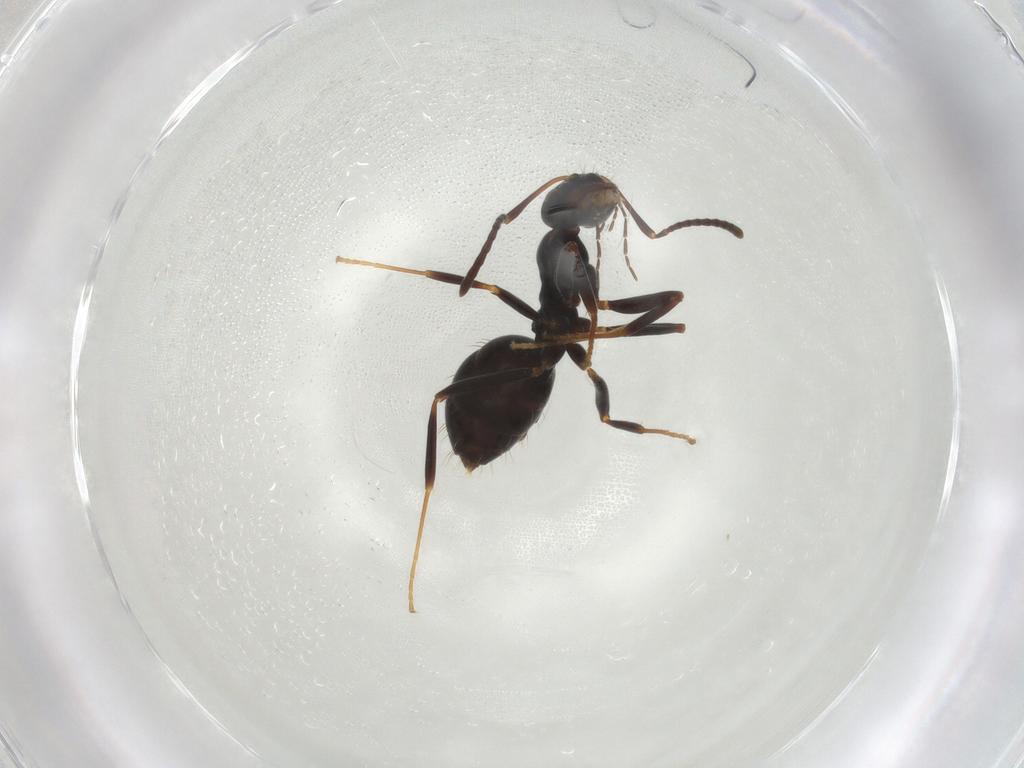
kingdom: Animalia
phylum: Arthropoda
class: Insecta
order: Hymenoptera
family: Formicidae
